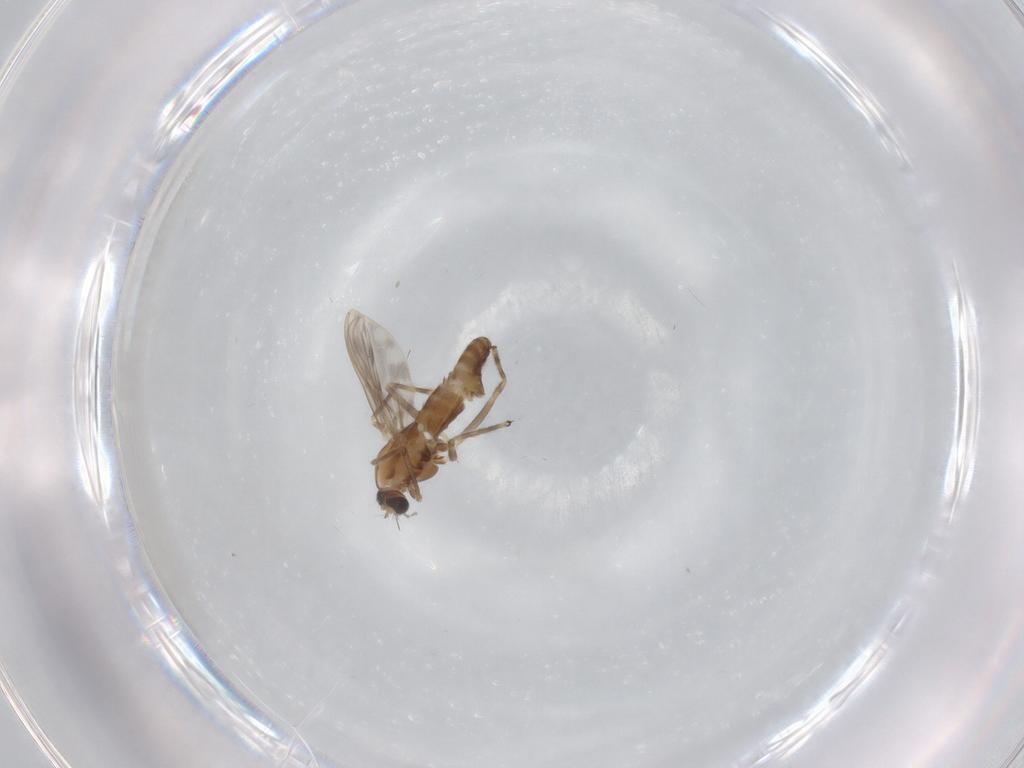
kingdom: Animalia
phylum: Arthropoda
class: Insecta
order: Diptera
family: Chironomidae
